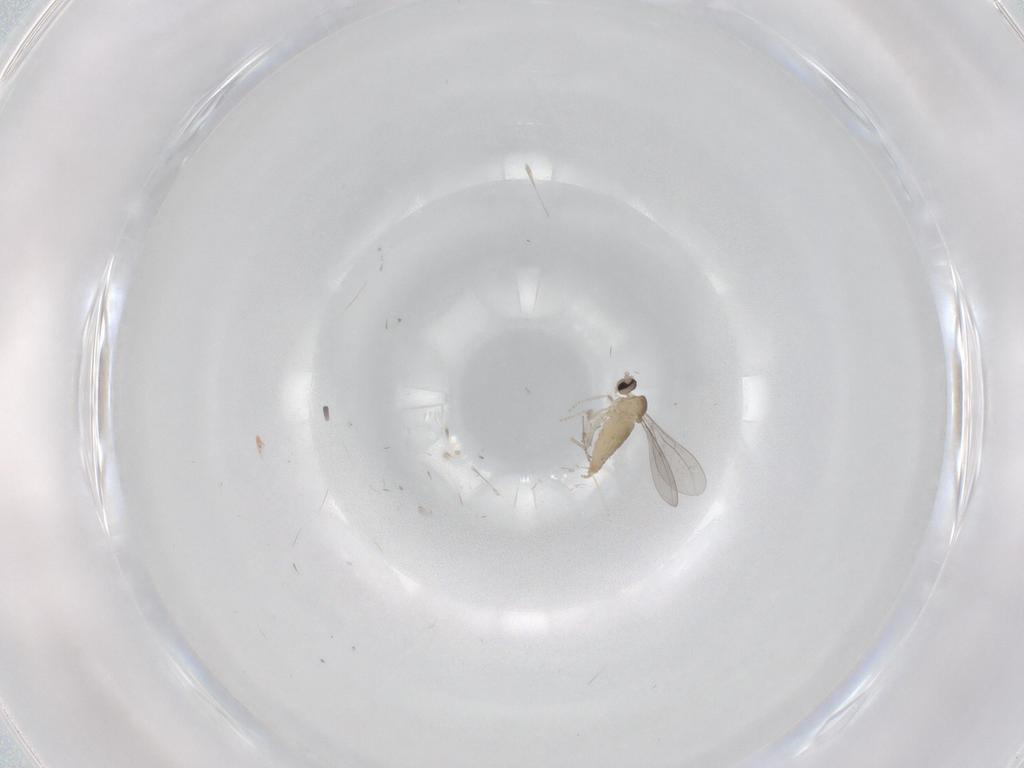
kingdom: Animalia
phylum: Arthropoda
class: Insecta
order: Diptera
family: Cecidomyiidae
